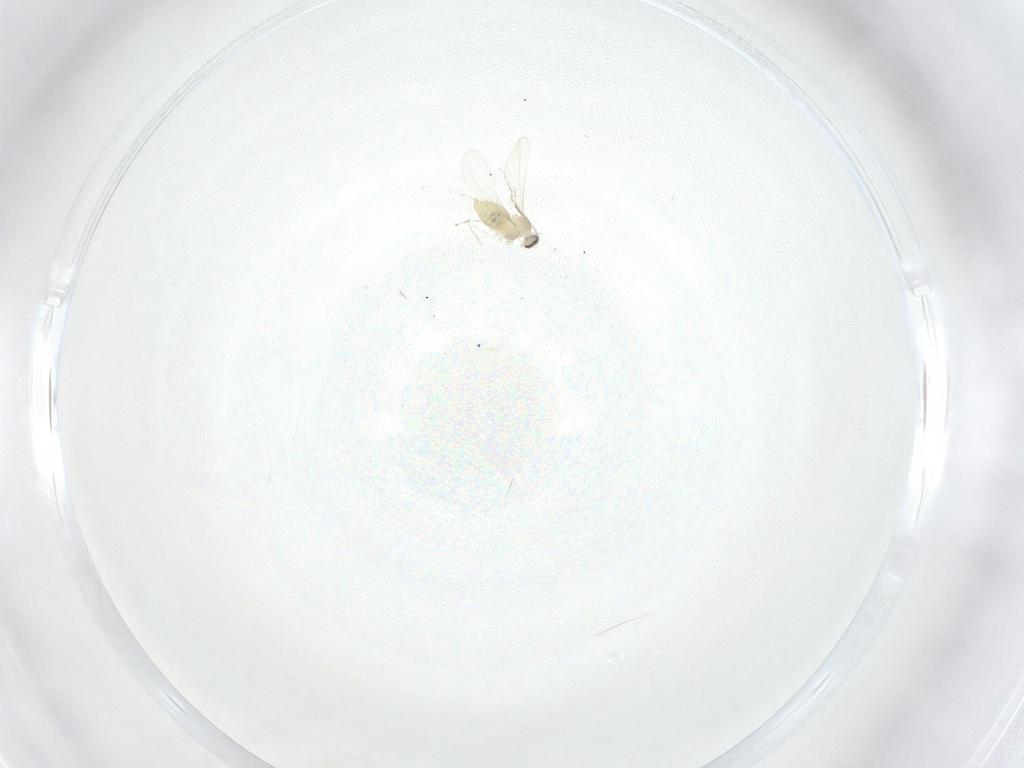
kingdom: Animalia
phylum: Arthropoda
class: Insecta
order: Diptera
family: Cecidomyiidae
